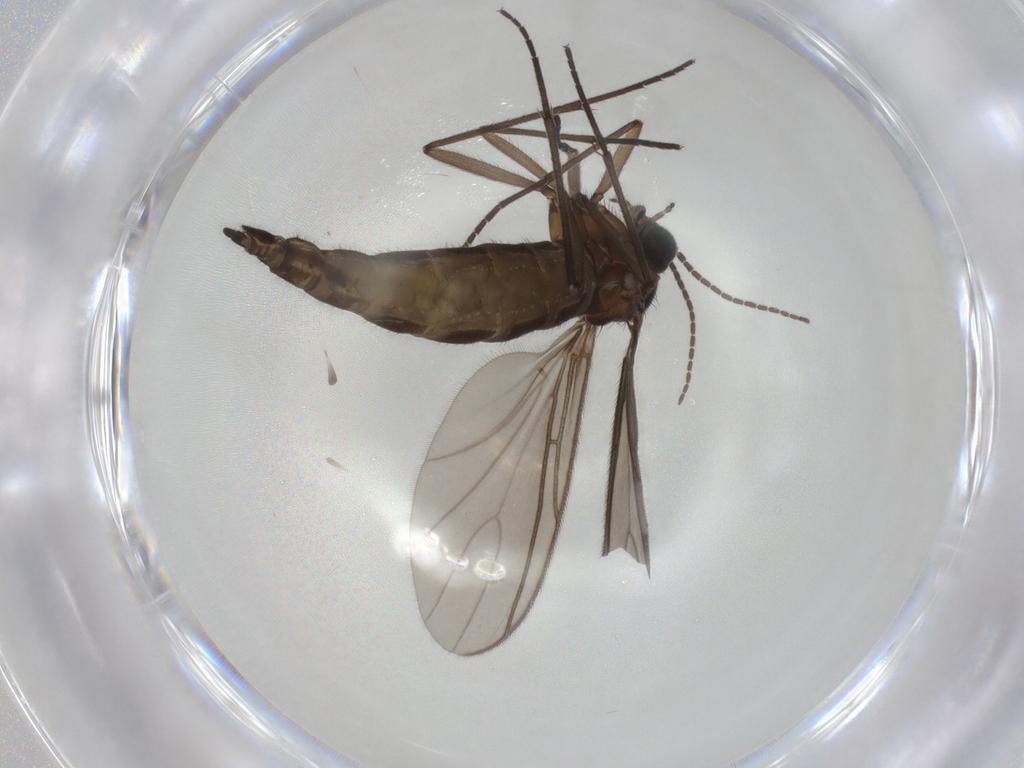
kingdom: Animalia
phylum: Arthropoda
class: Insecta
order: Diptera
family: Sciaridae
